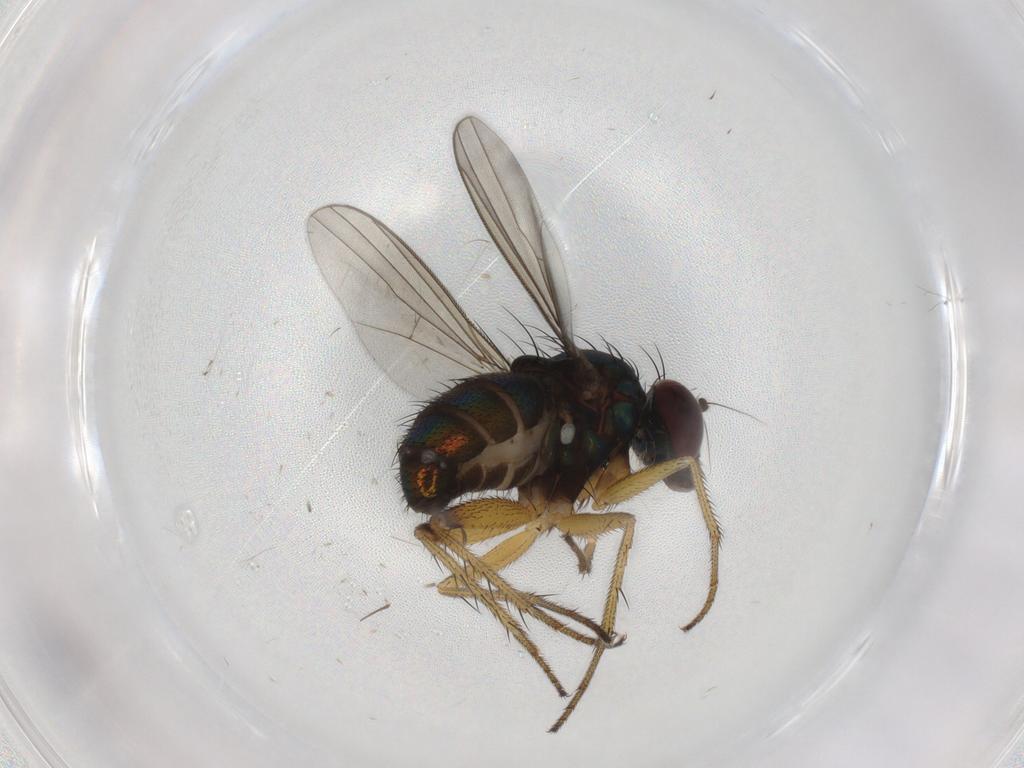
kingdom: Animalia
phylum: Arthropoda
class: Insecta
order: Diptera
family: Dolichopodidae
